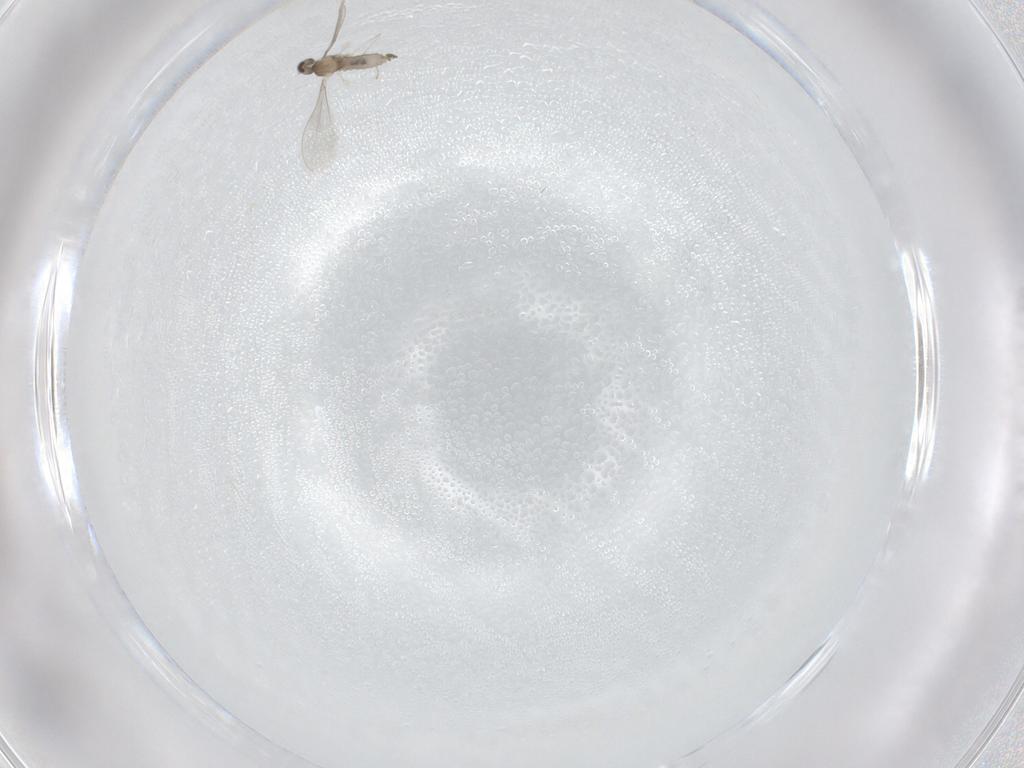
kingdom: Animalia
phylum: Arthropoda
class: Insecta
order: Diptera
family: Cecidomyiidae
